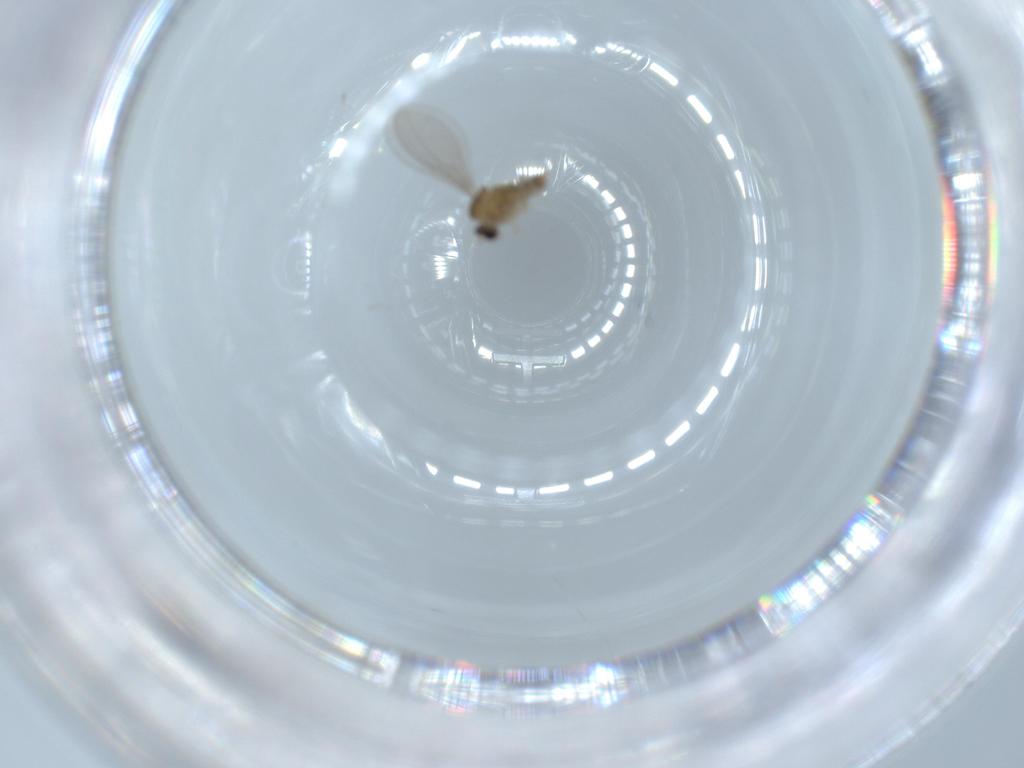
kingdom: Animalia
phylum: Arthropoda
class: Insecta
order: Diptera
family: Cecidomyiidae
